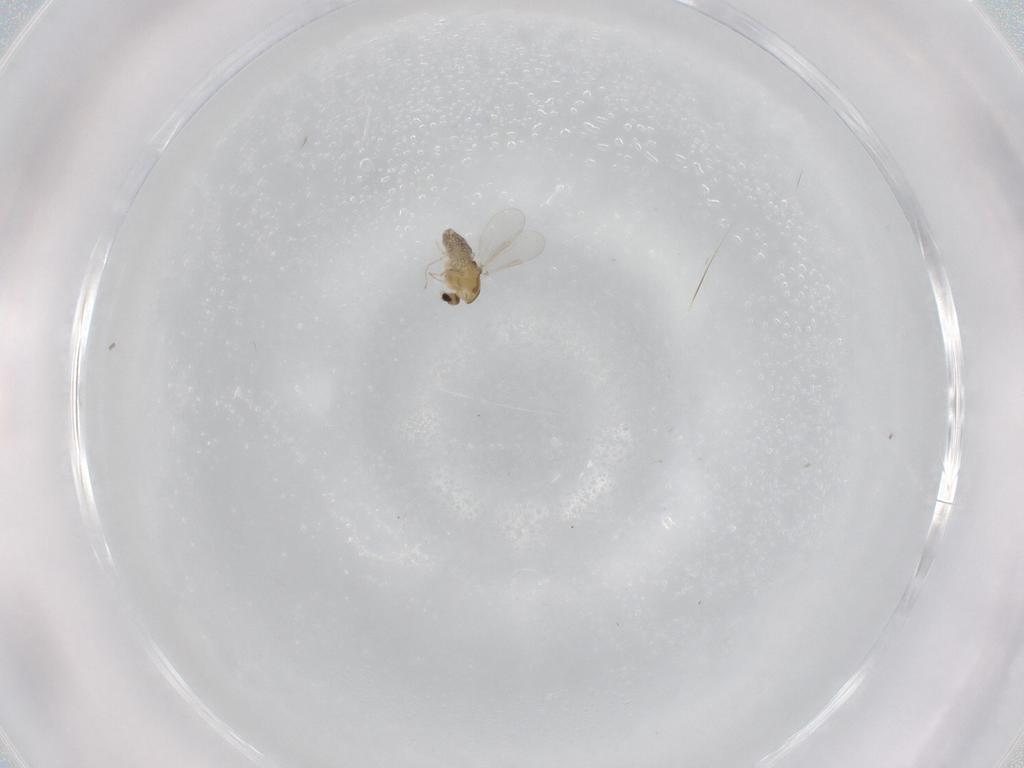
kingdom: Animalia
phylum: Arthropoda
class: Insecta
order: Diptera
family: Chironomidae
